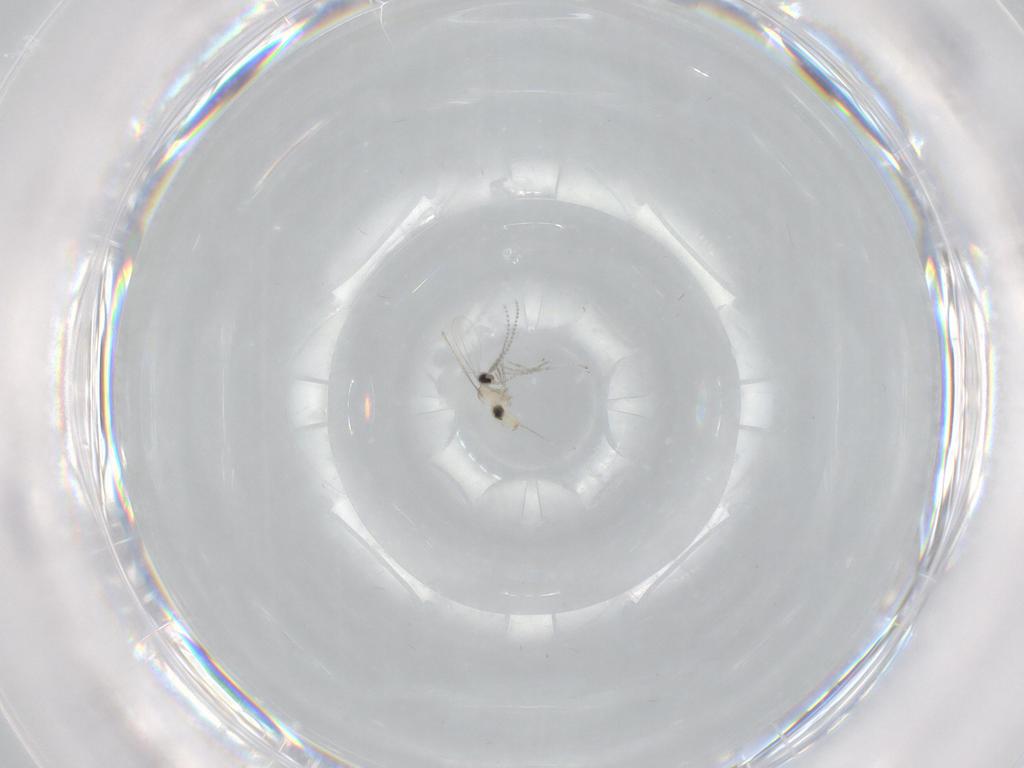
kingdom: Animalia
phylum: Arthropoda
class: Insecta
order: Diptera
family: Cecidomyiidae
